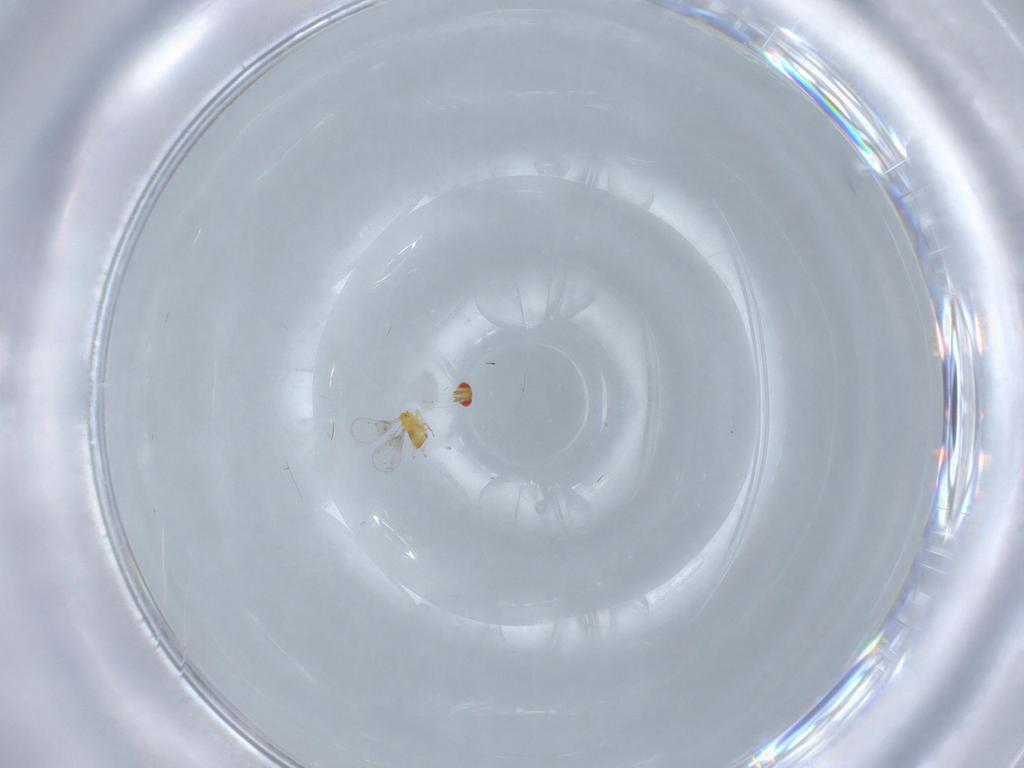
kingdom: Animalia
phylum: Arthropoda
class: Insecta
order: Hymenoptera
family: Trichogrammatidae
